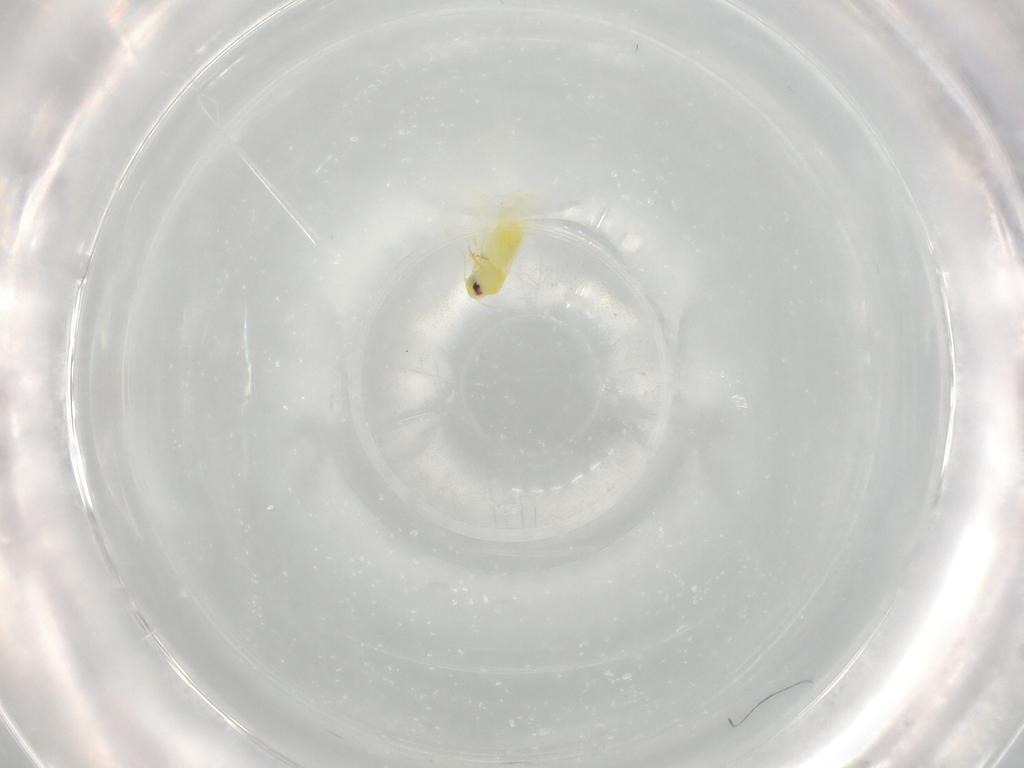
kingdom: Animalia
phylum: Arthropoda
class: Insecta
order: Hemiptera
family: Aleyrodidae
